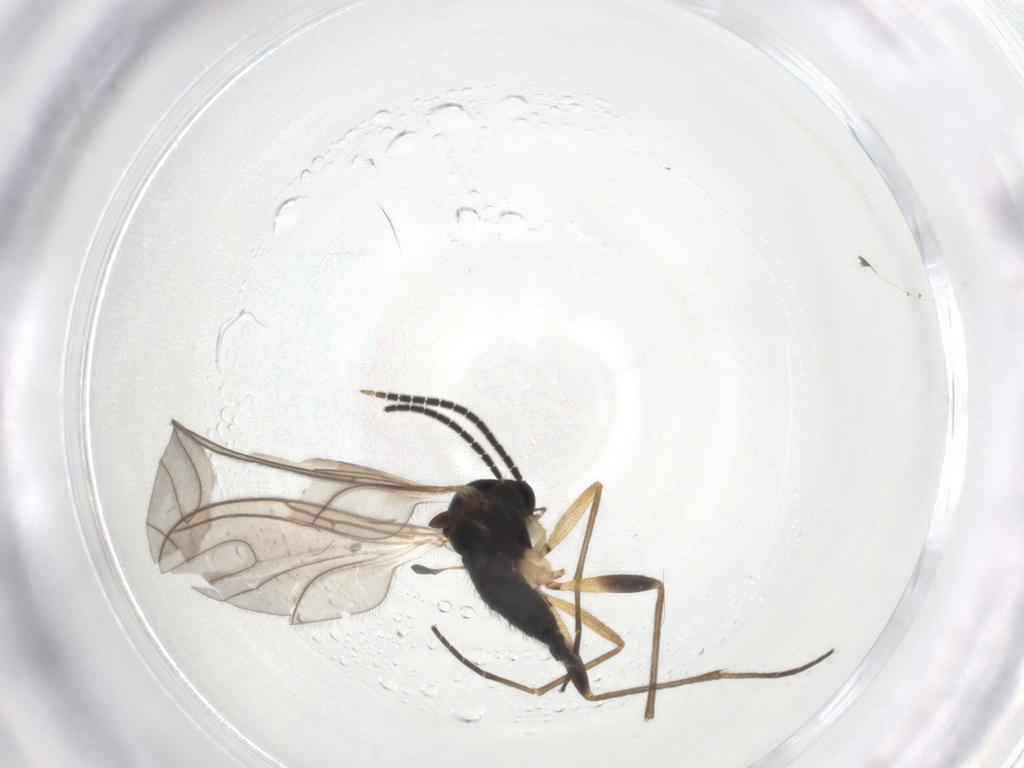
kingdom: Animalia
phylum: Arthropoda
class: Insecta
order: Diptera
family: Sciaridae
